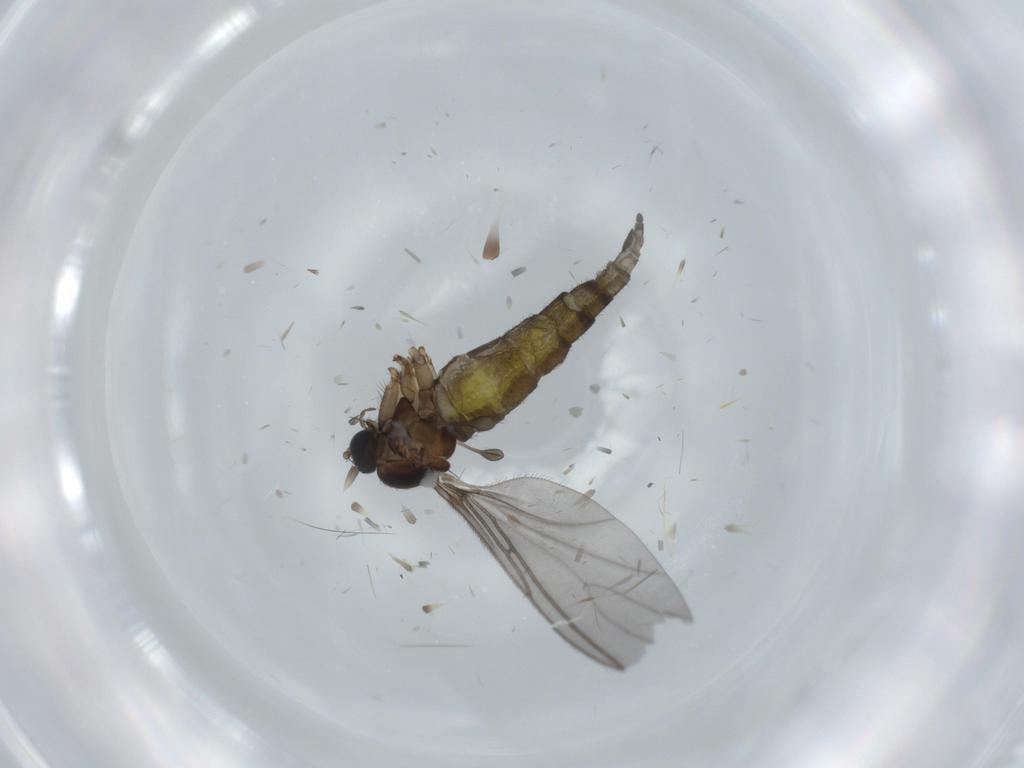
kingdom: Animalia
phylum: Arthropoda
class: Insecta
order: Diptera
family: Sciaridae
